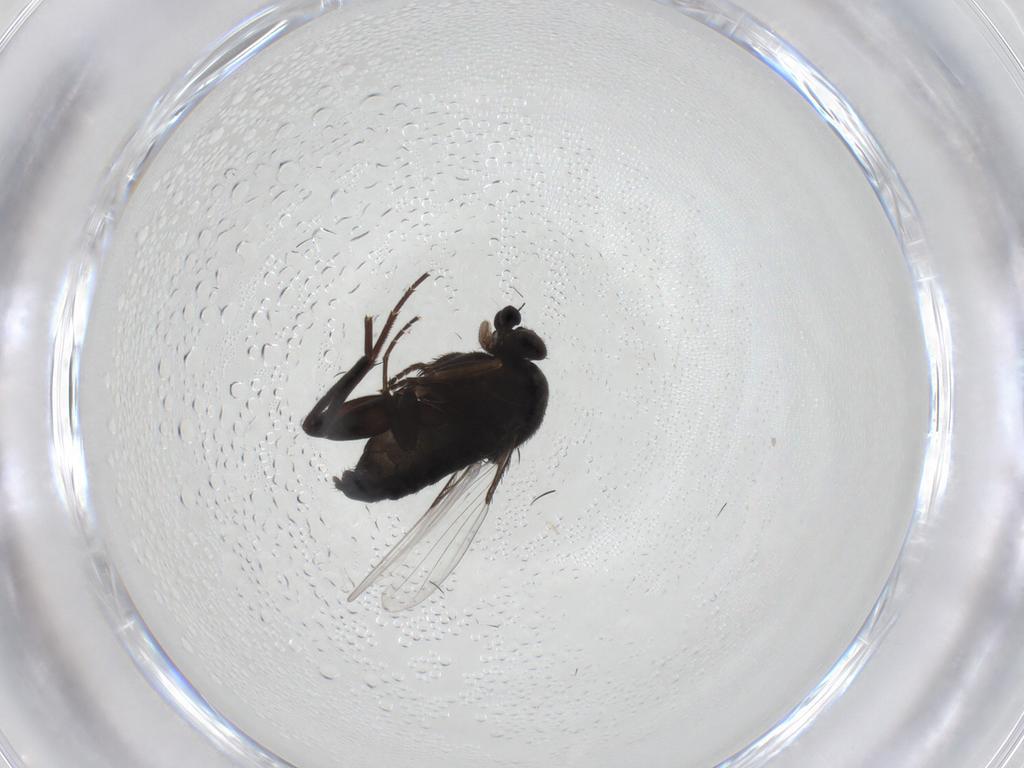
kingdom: Animalia
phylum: Arthropoda
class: Insecta
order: Diptera
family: Phoridae
